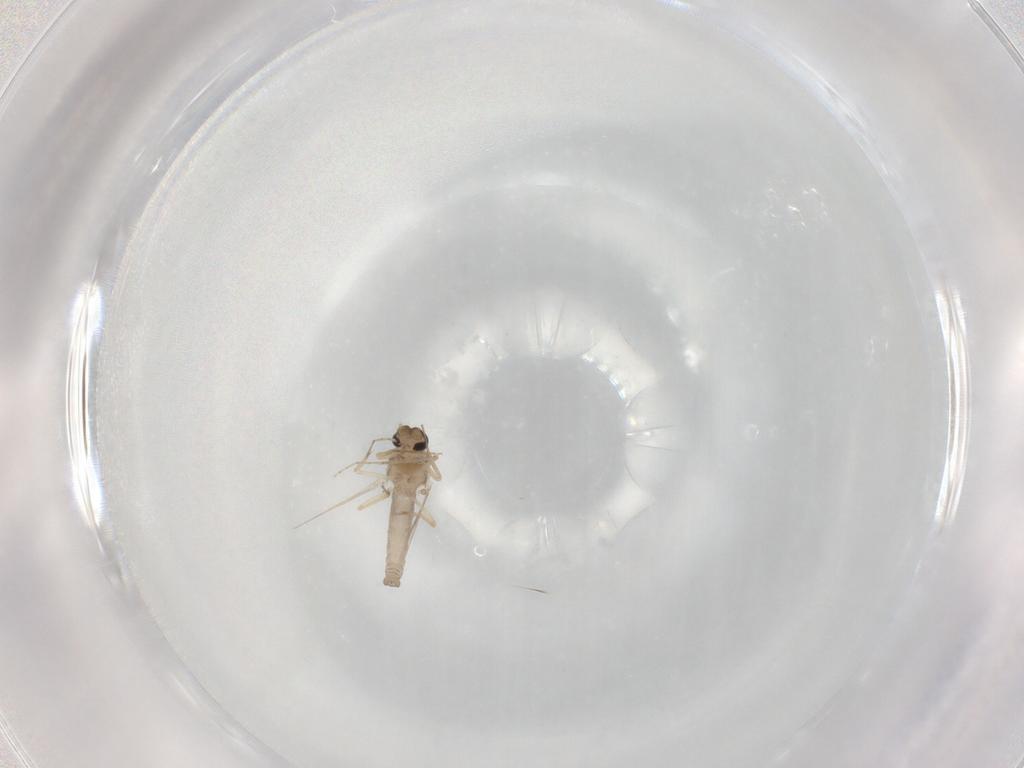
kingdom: Animalia
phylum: Arthropoda
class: Insecta
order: Diptera
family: Ceratopogonidae
